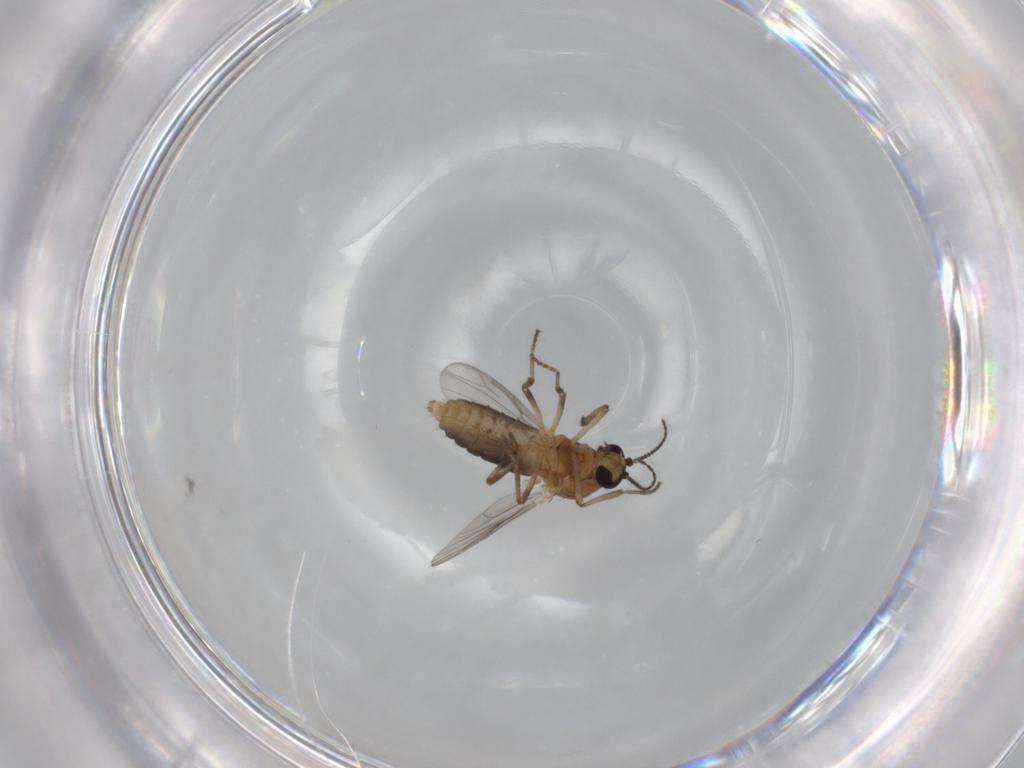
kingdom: Animalia
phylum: Arthropoda
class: Insecta
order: Diptera
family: Ceratopogonidae
